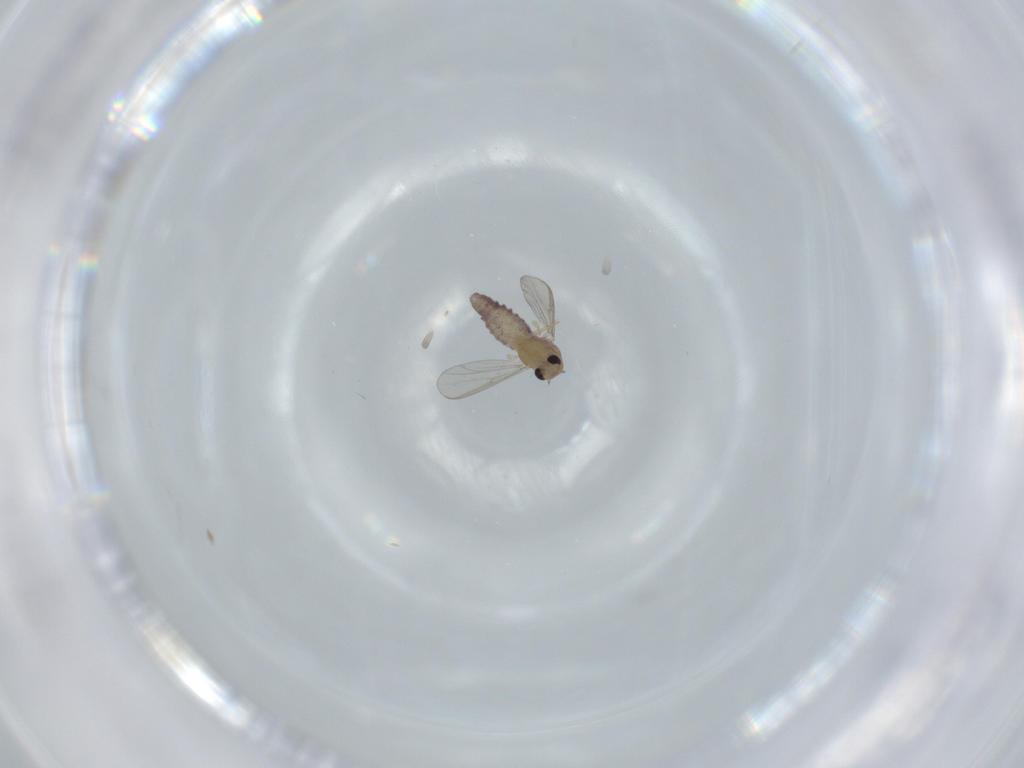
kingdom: Animalia
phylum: Arthropoda
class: Insecta
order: Diptera
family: Chironomidae
